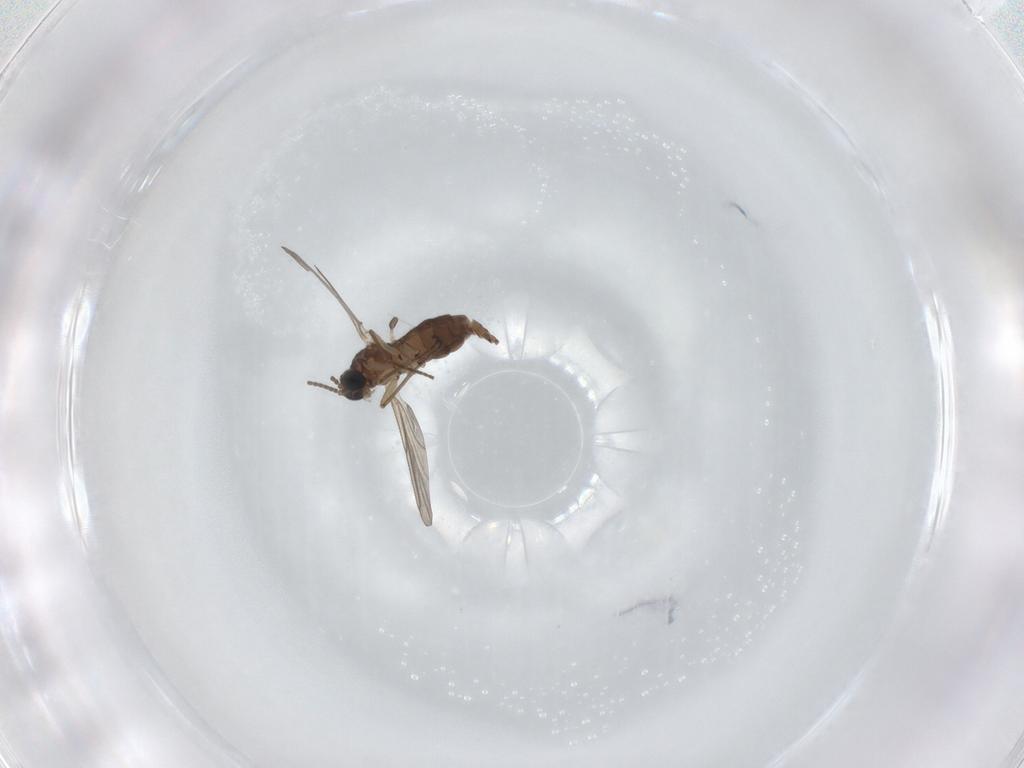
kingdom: Animalia
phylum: Arthropoda
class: Insecta
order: Diptera
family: Sciaridae
